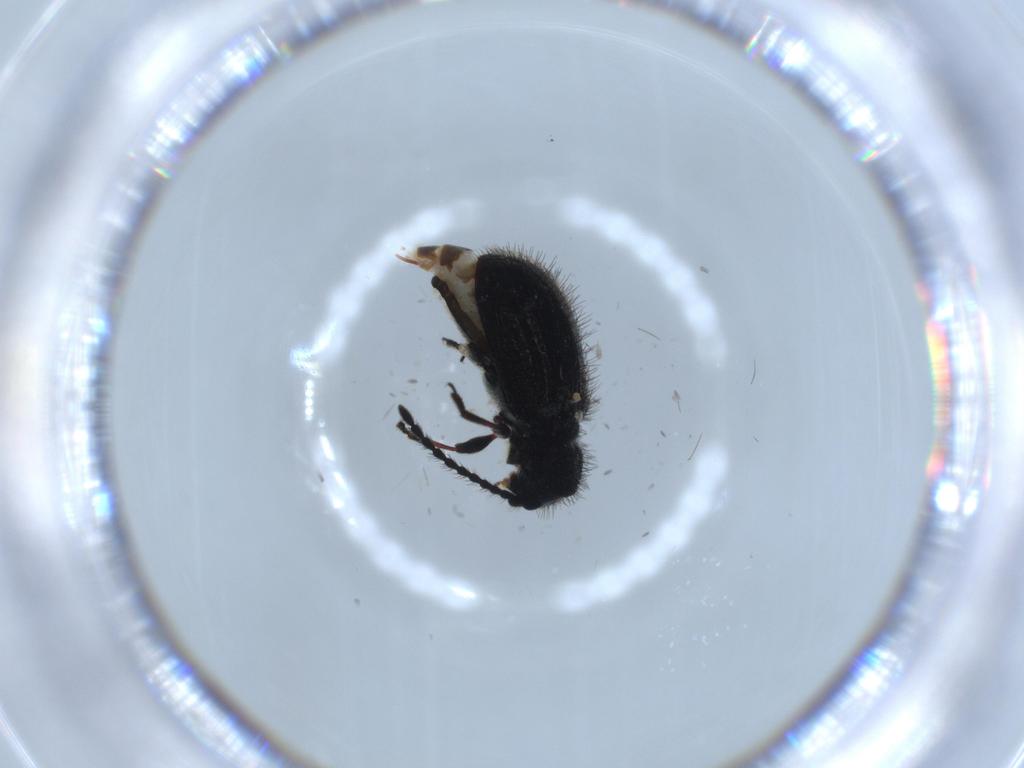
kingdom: Animalia
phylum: Arthropoda
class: Insecta
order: Coleoptera
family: Ptinidae
